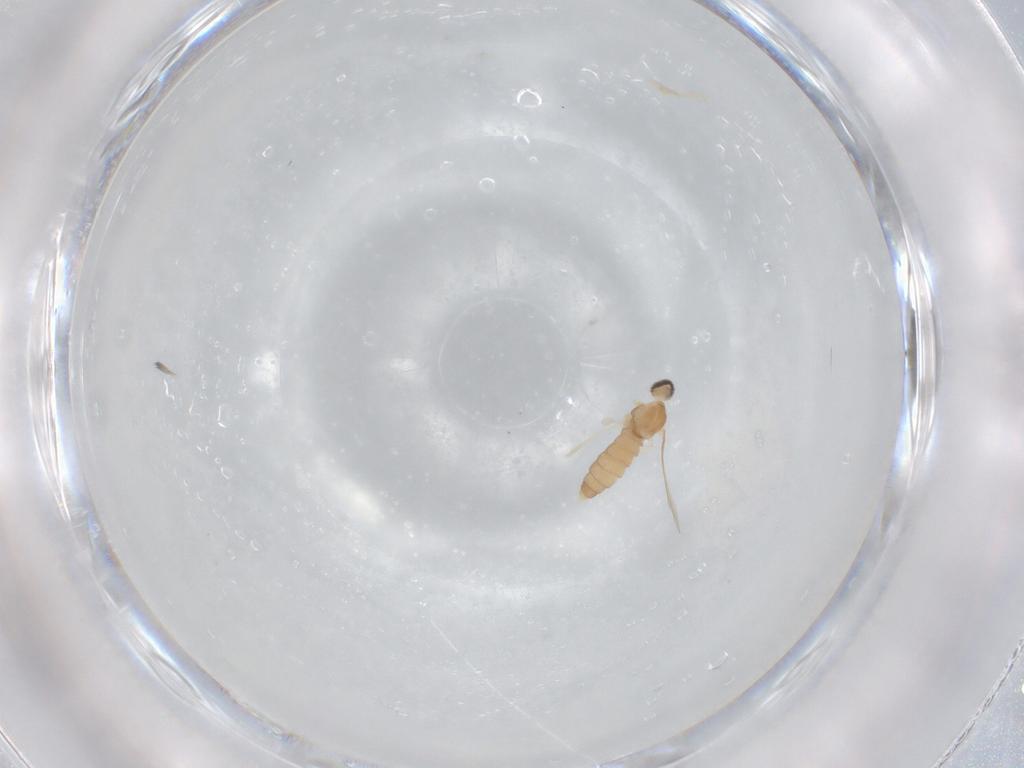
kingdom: Animalia
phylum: Arthropoda
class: Insecta
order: Diptera
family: Cecidomyiidae
